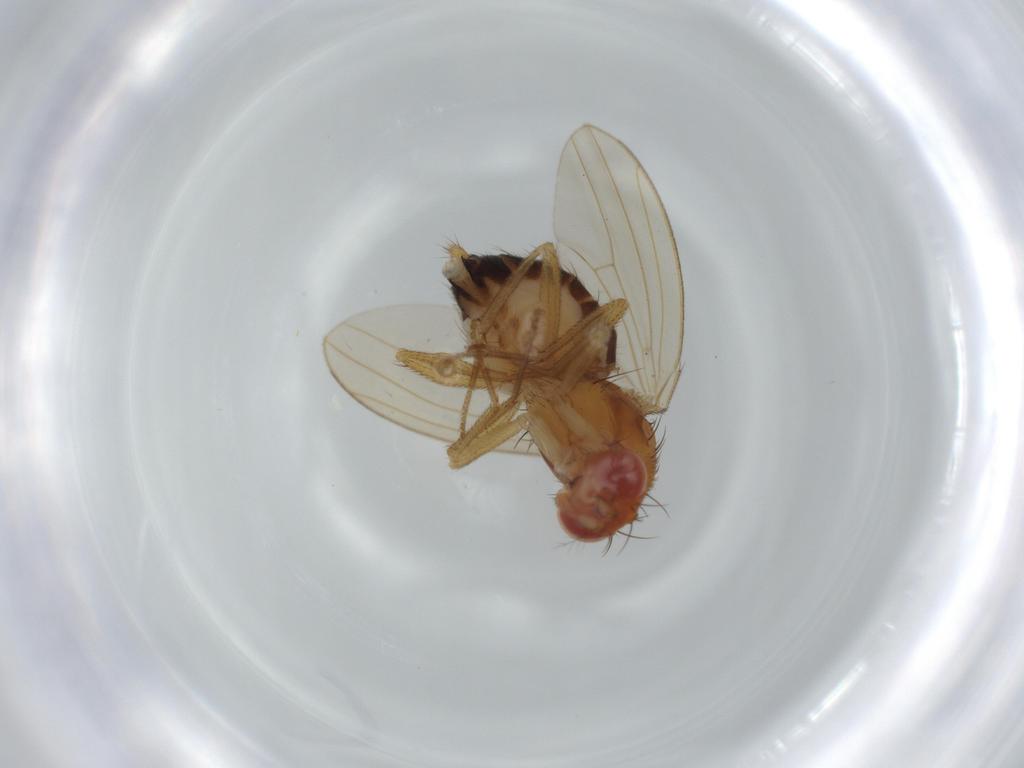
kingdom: Animalia
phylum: Arthropoda
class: Insecta
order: Diptera
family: Drosophilidae
